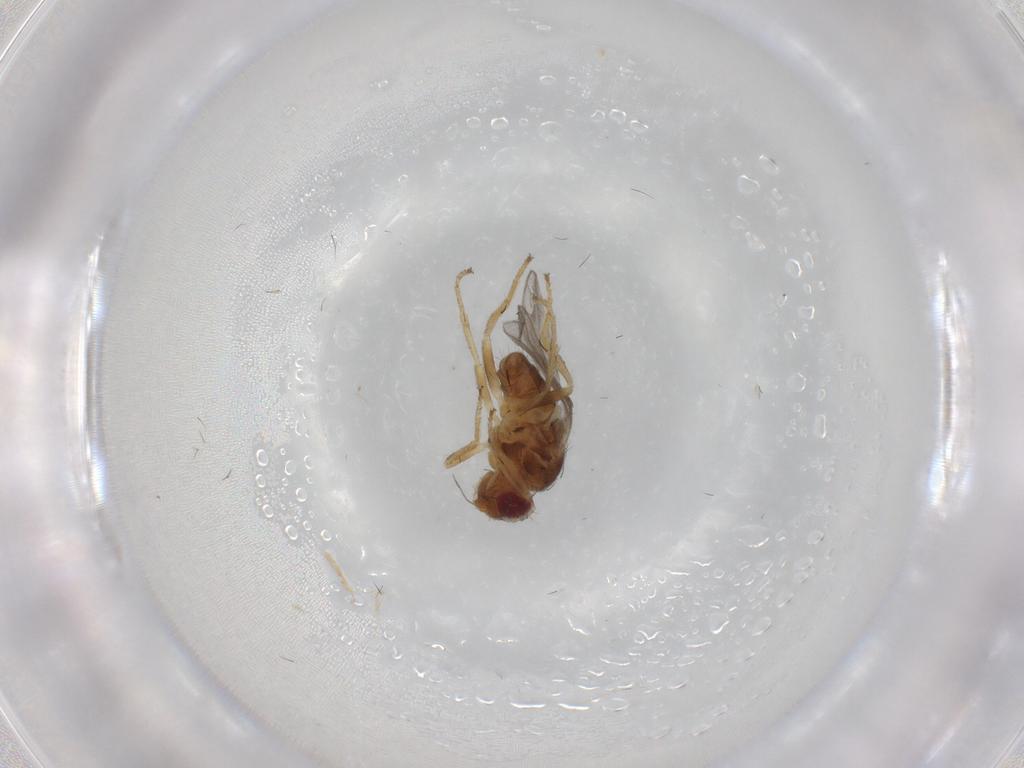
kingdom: Animalia
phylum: Arthropoda
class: Insecta
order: Diptera
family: Chloropidae
